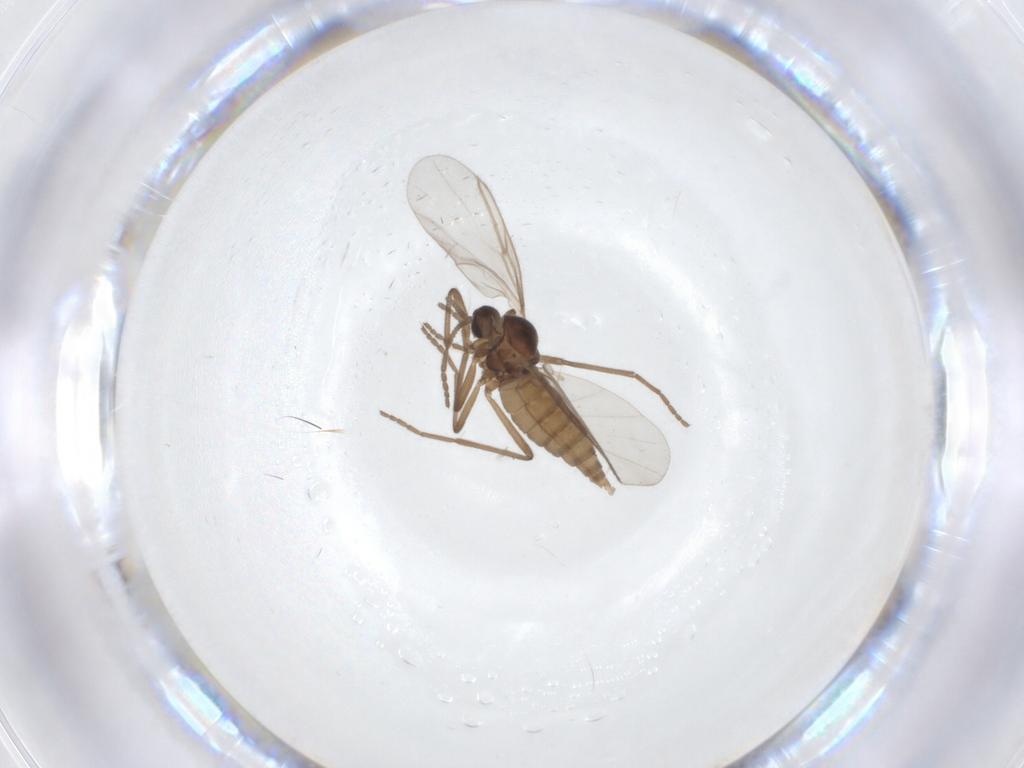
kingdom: Animalia
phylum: Arthropoda
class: Insecta
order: Diptera
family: Cecidomyiidae
